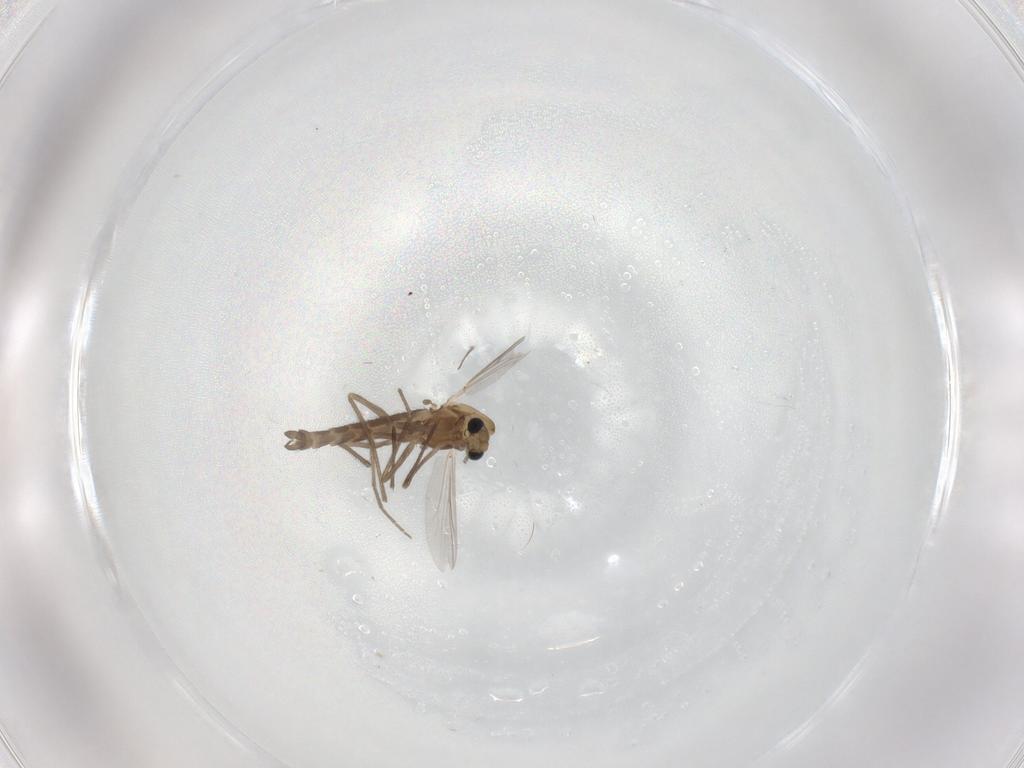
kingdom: Animalia
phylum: Arthropoda
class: Insecta
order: Diptera
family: Chironomidae
